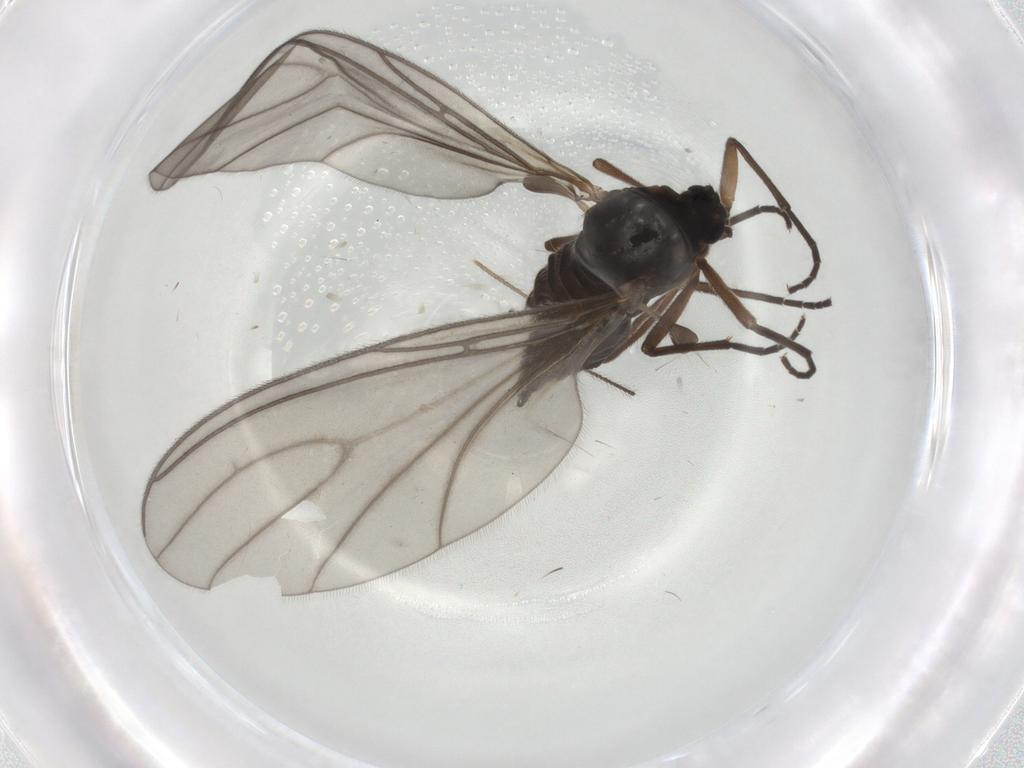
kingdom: Animalia
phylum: Arthropoda
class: Insecta
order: Diptera
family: Sciaridae
